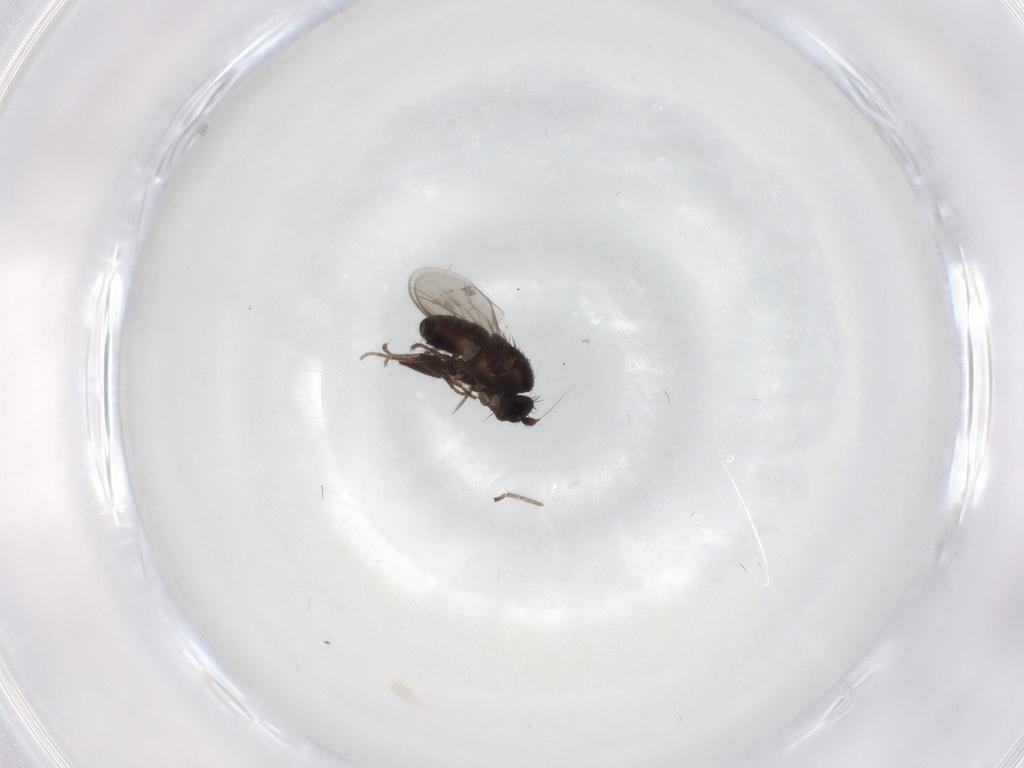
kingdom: Animalia
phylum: Arthropoda
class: Insecta
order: Diptera
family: Limoniidae
